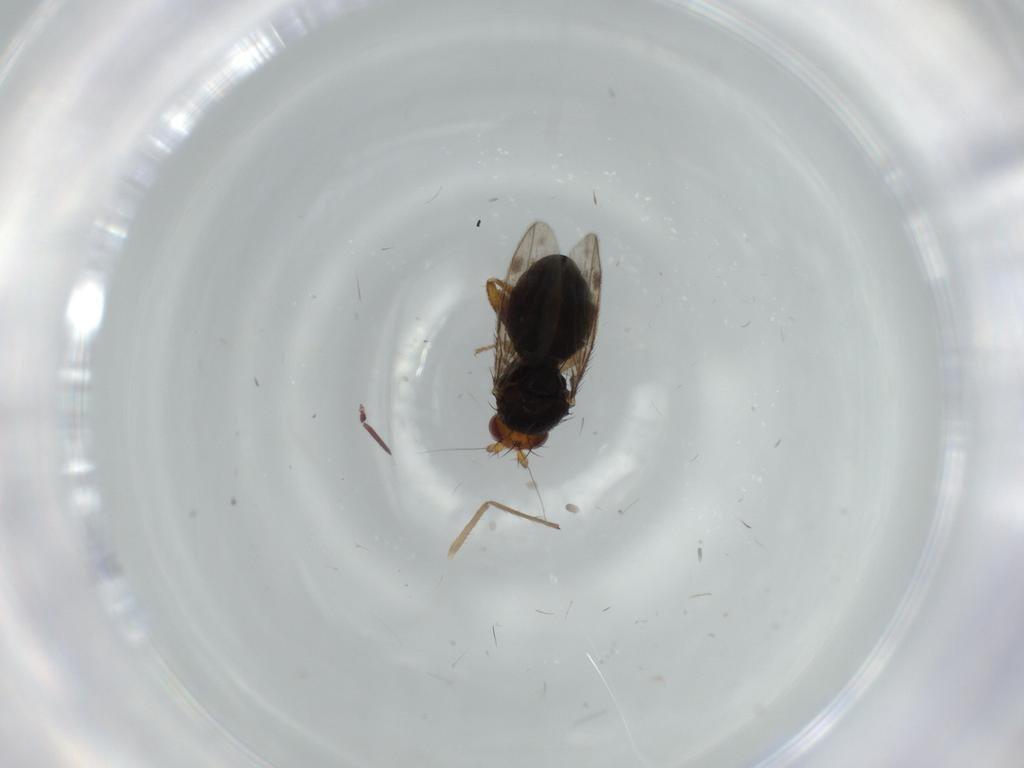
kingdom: Animalia
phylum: Arthropoda
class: Insecta
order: Diptera
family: Sphaeroceridae
